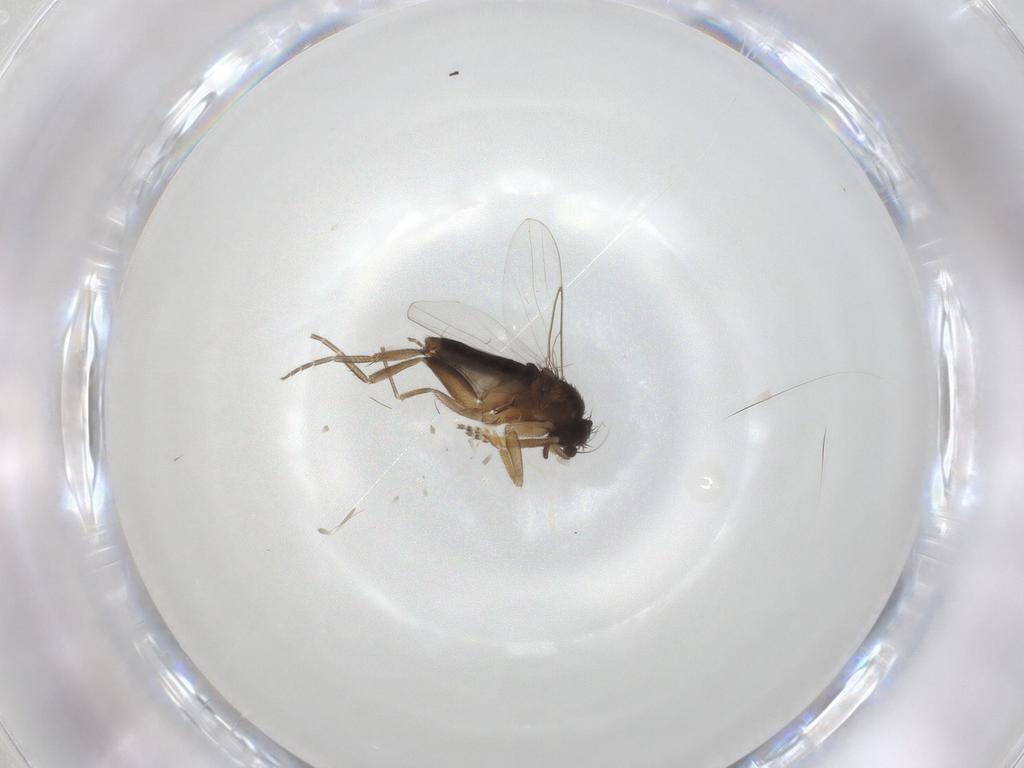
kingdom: Animalia
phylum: Arthropoda
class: Insecta
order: Diptera
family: Phoridae
